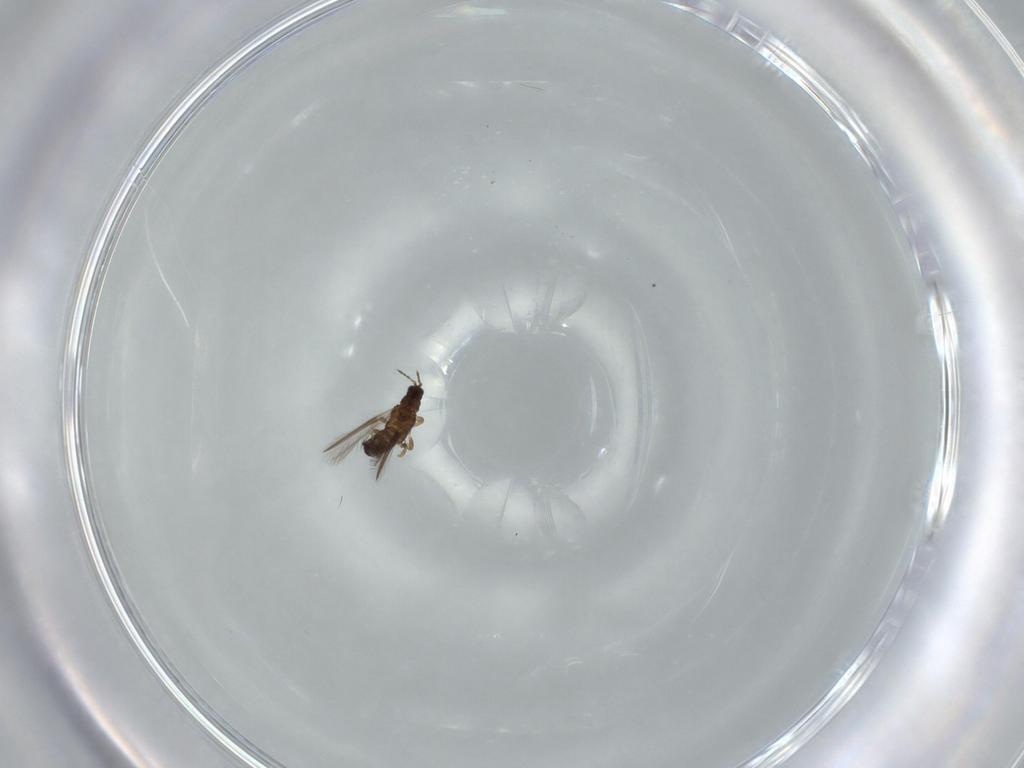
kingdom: Animalia
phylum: Arthropoda
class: Insecta
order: Thysanoptera
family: Thripidae
